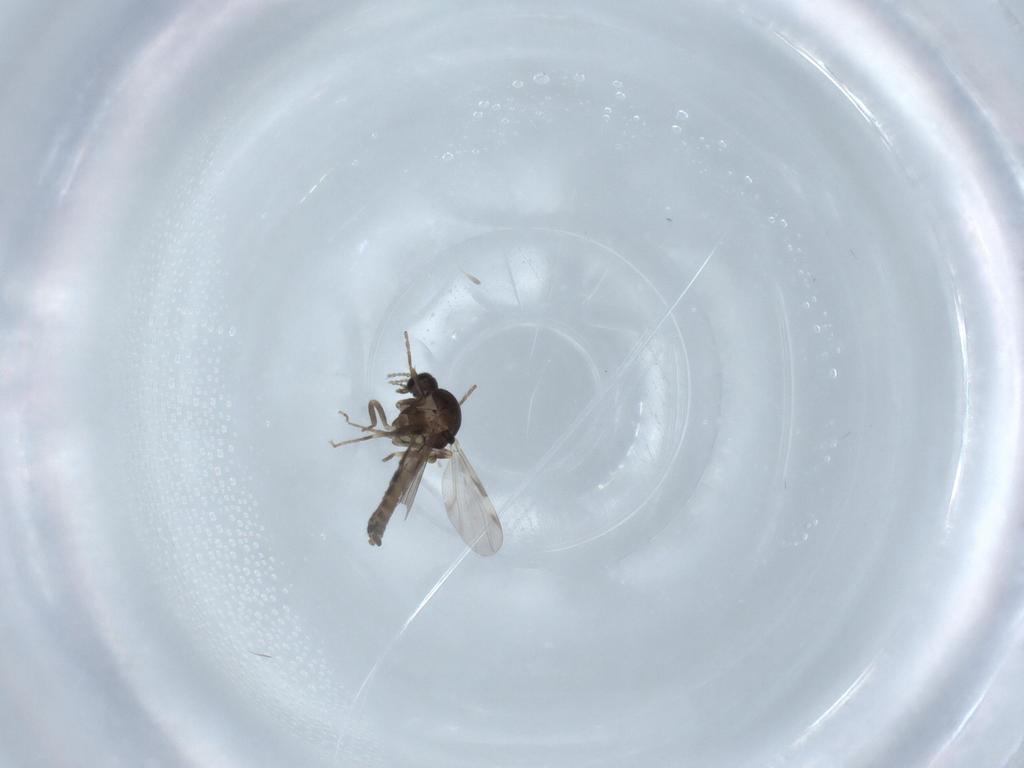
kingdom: Animalia
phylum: Arthropoda
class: Insecta
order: Diptera
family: Ceratopogonidae
